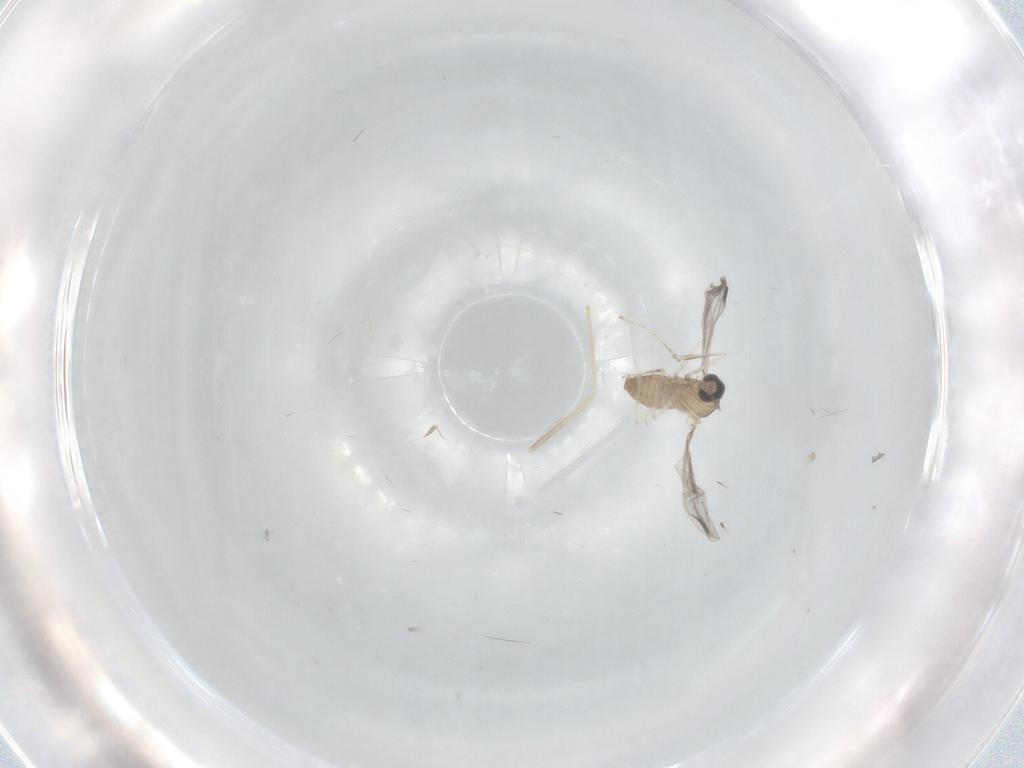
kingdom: Animalia
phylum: Arthropoda
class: Insecta
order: Diptera
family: Cecidomyiidae
